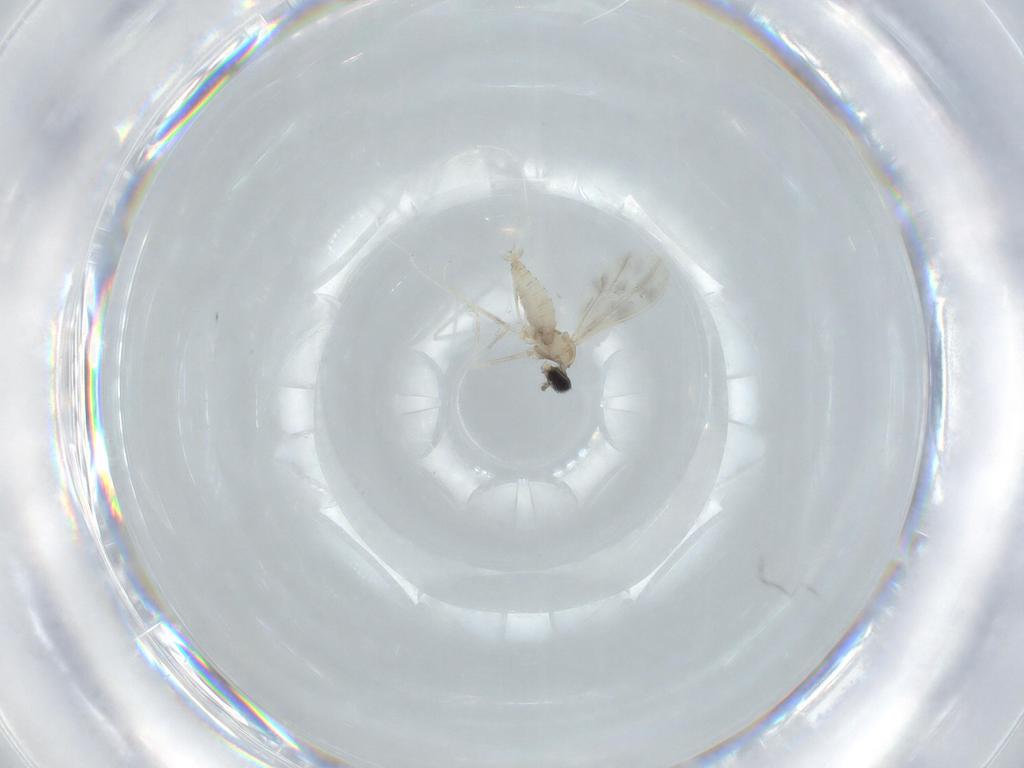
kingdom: Animalia
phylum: Arthropoda
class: Insecta
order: Diptera
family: Cecidomyiidae
